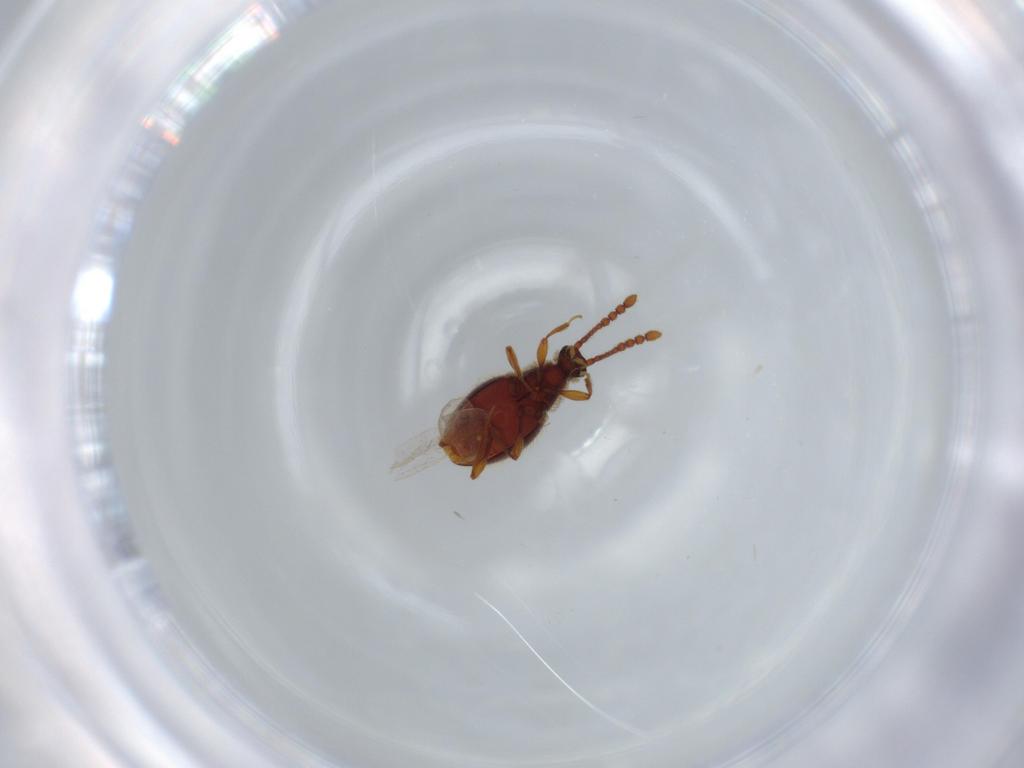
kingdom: Animalia
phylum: Arthropoda
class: Insecta
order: Coleoptera
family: Staphylinidae
